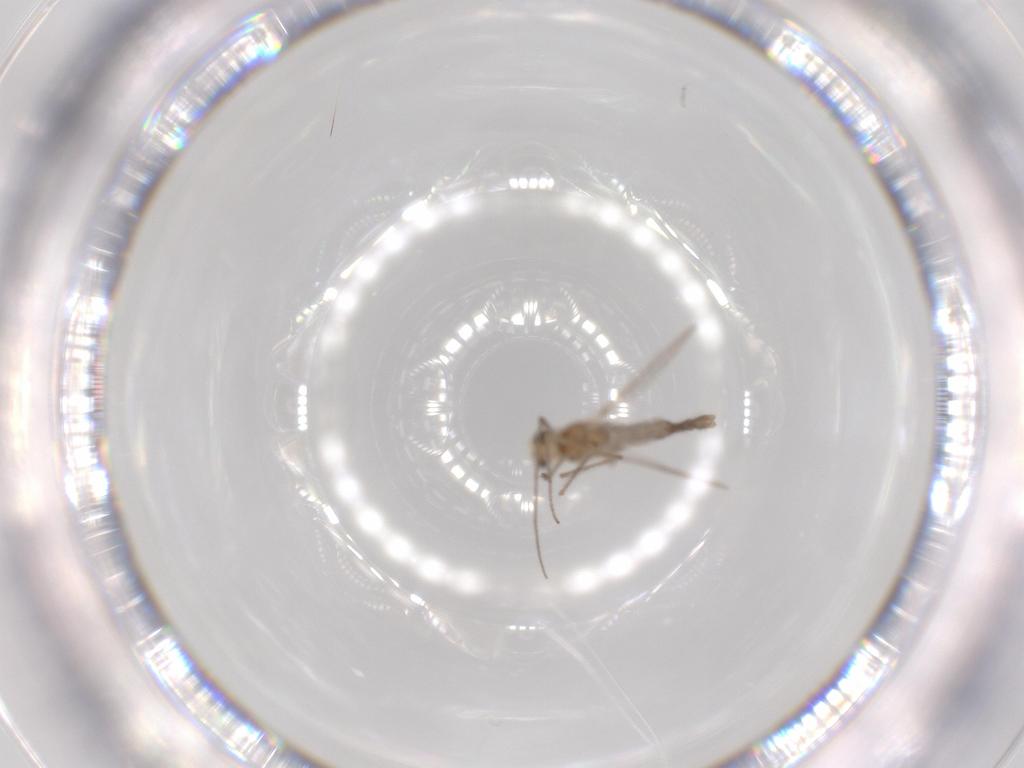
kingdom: Animalia
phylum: Arthropoda
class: Insecta
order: Diptera
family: Chironomidae
